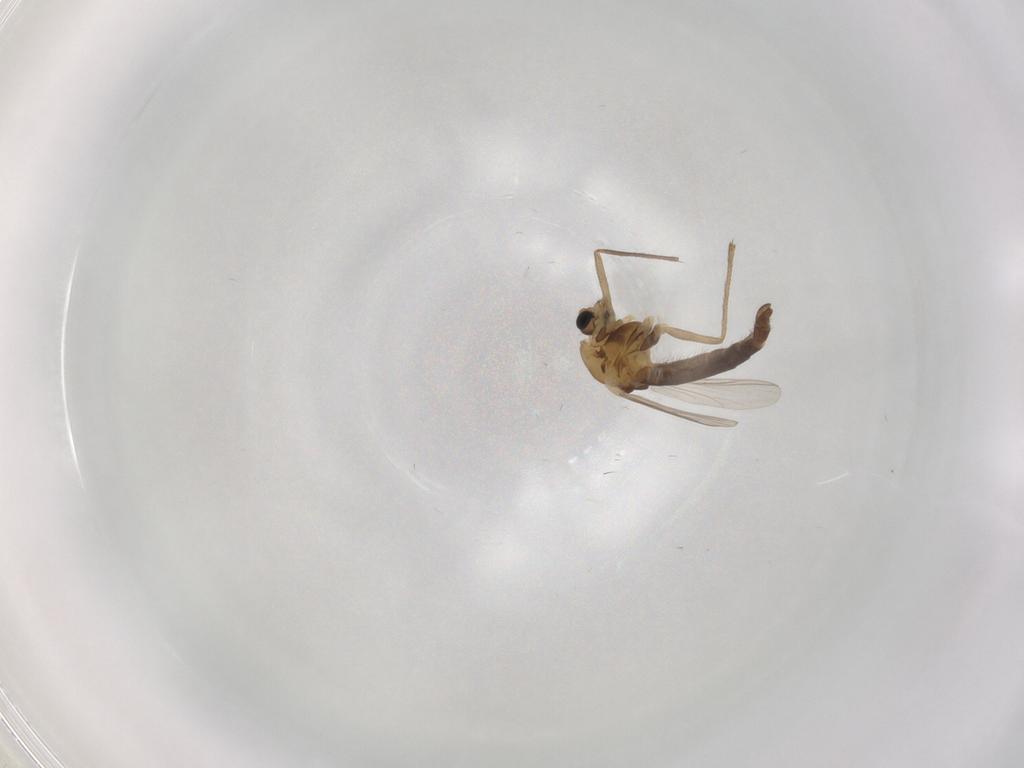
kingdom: Animalia
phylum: Arthropoda
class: Insecta
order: Diptera
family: Chironomidae
